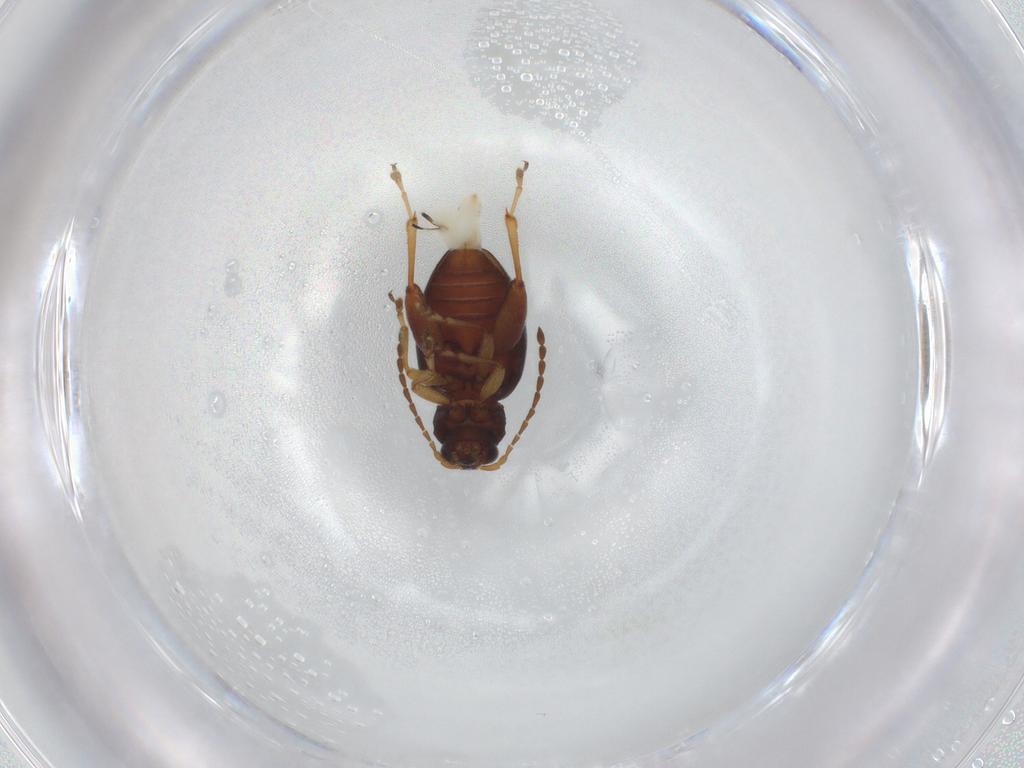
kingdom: Animalia
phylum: Arthropoda
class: Insecta
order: Coleoptera
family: Chrysomelidae
